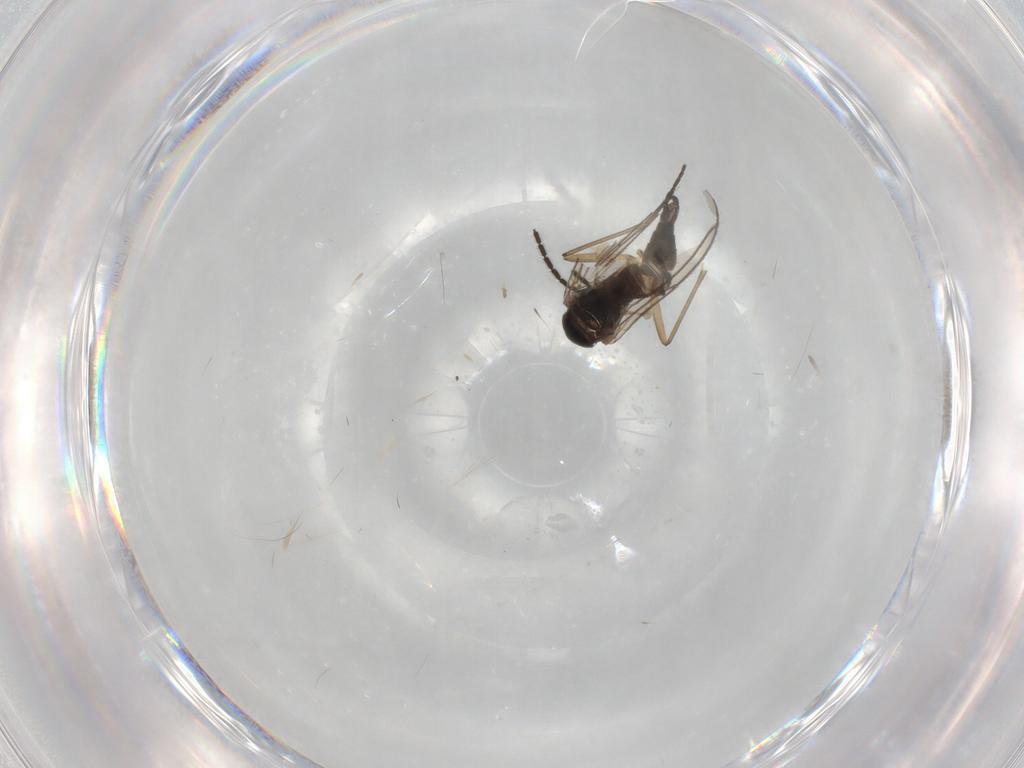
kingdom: Animalia
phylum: Arthropoda
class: Insecta
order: Diptera
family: Sciaridae
